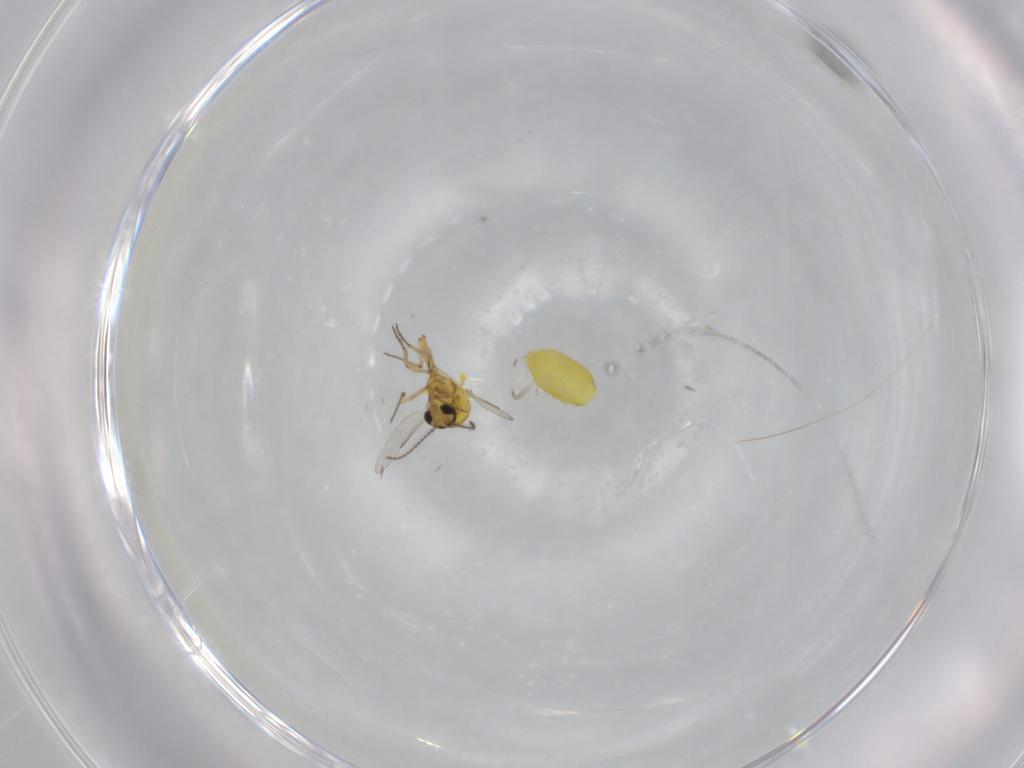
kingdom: Animalia
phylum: Arthropoda
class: Insecta
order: Diptera
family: Ceratopogonidae
